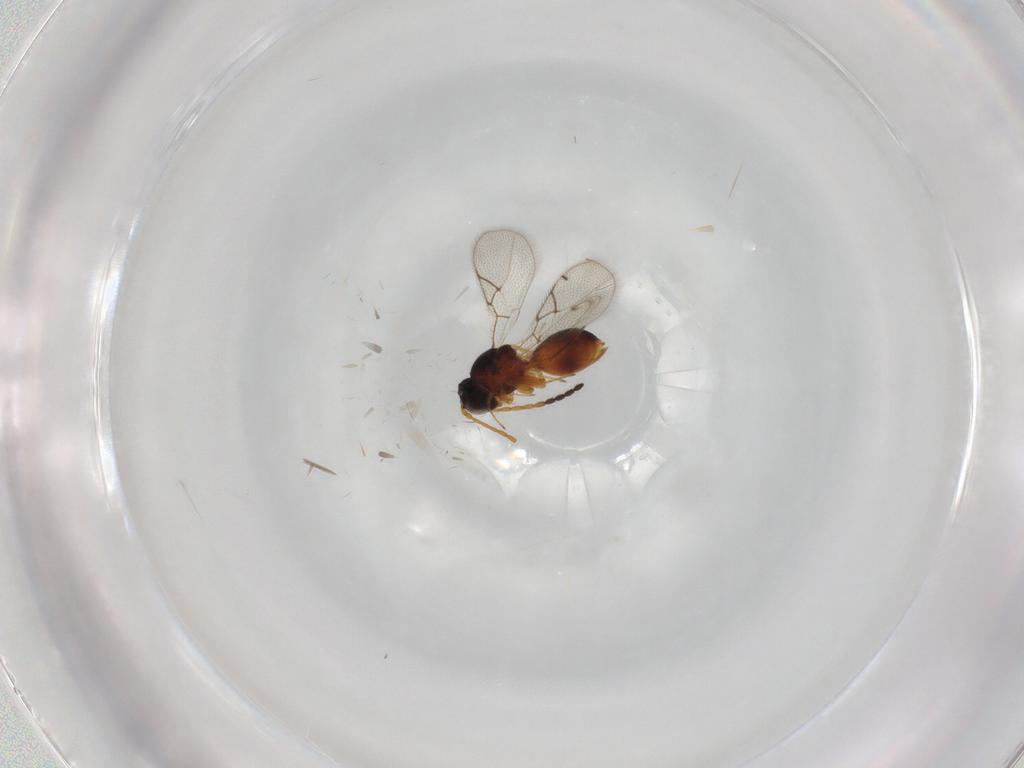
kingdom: Animalia
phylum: Arthropoda
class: Insecta
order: Hymenoptera
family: Figitidae
